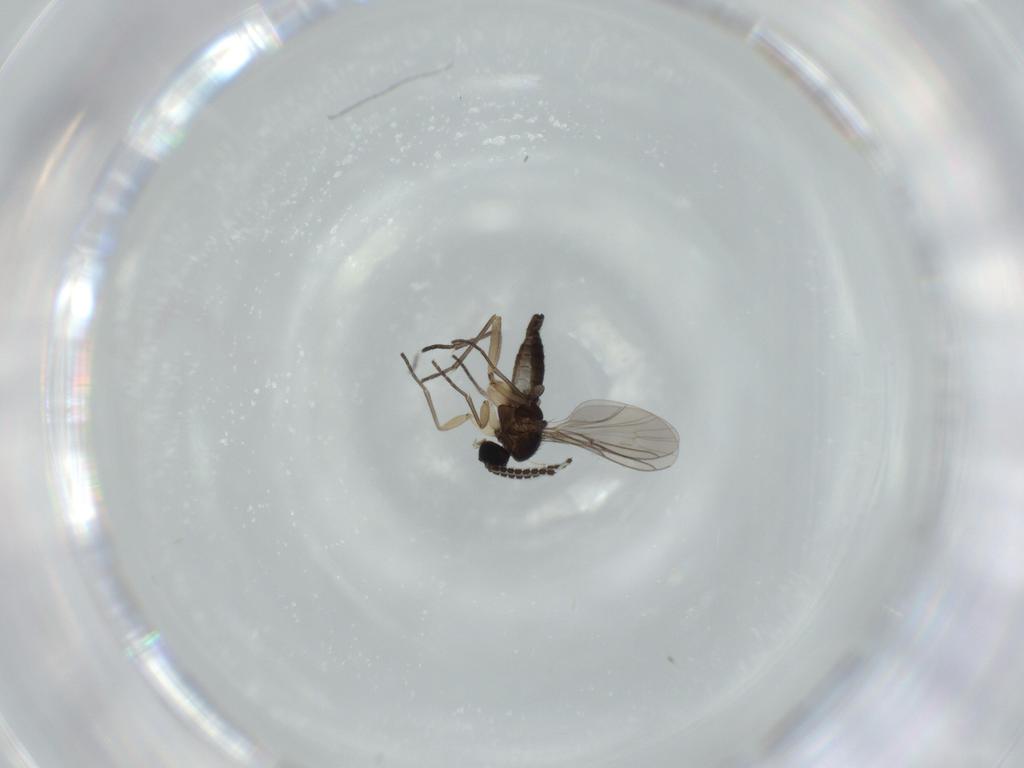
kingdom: Animalia
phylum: Arthropoda
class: Insecta
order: Diptera
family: Sciaridae
